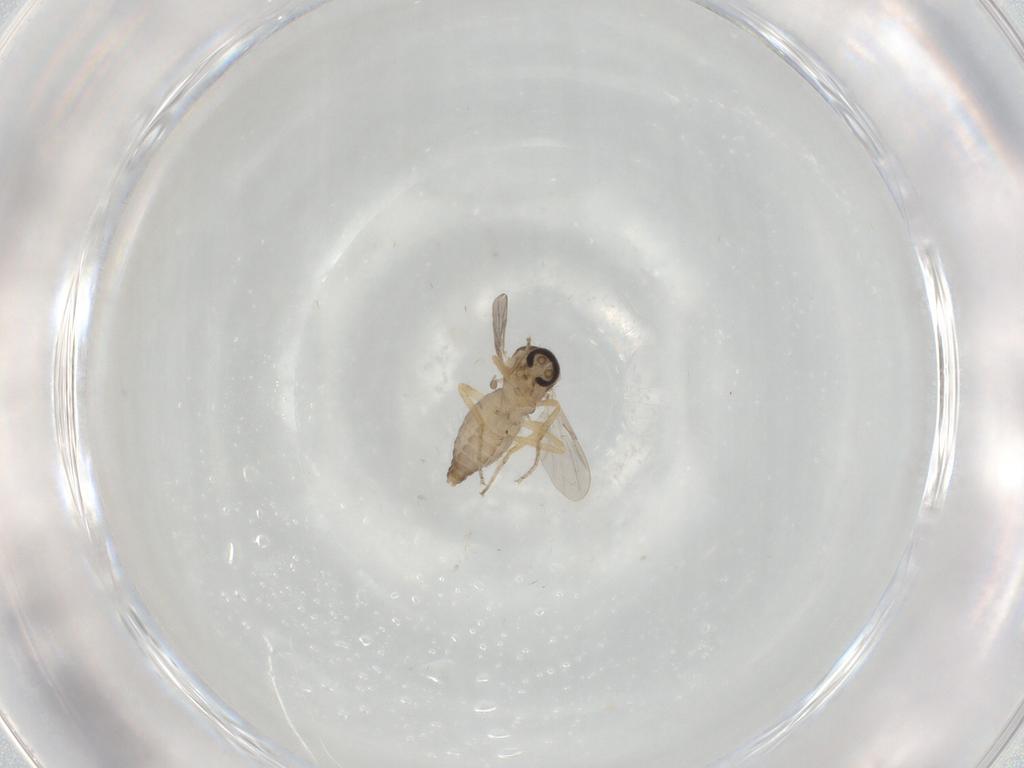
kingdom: Animalia
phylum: Arthropoda
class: Insecta
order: Diptera
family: Ceratopogonidae
